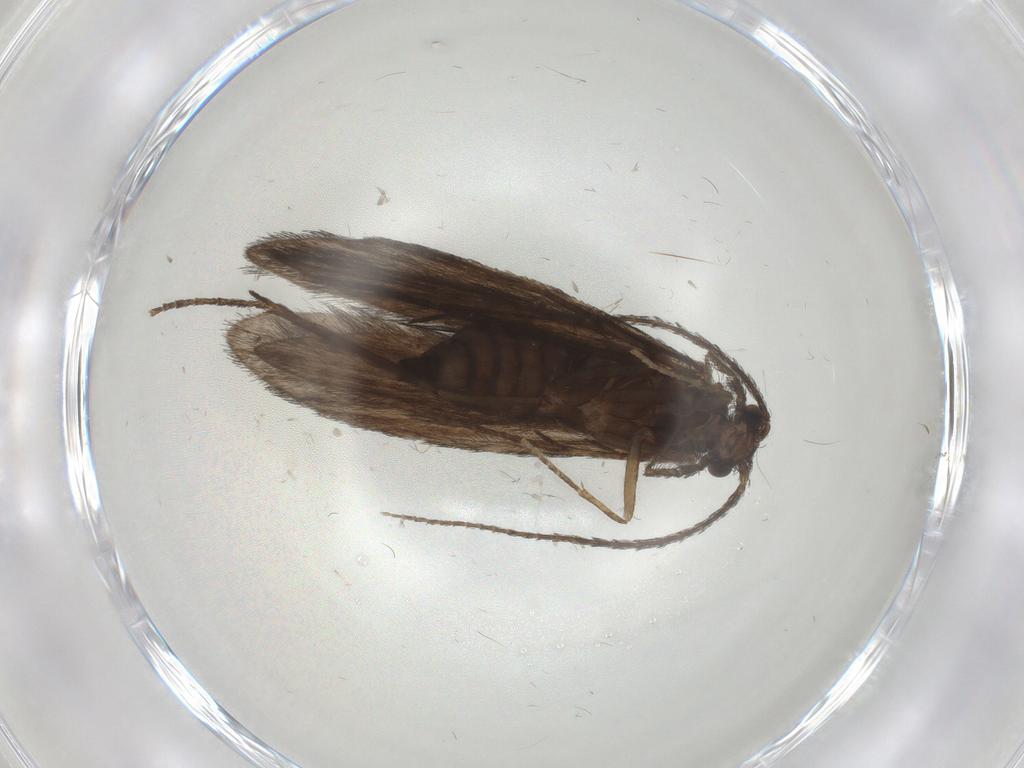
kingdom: Animalia
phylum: Arthropoda
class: Insecta
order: Trichoptera
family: Xiphocentronidae
